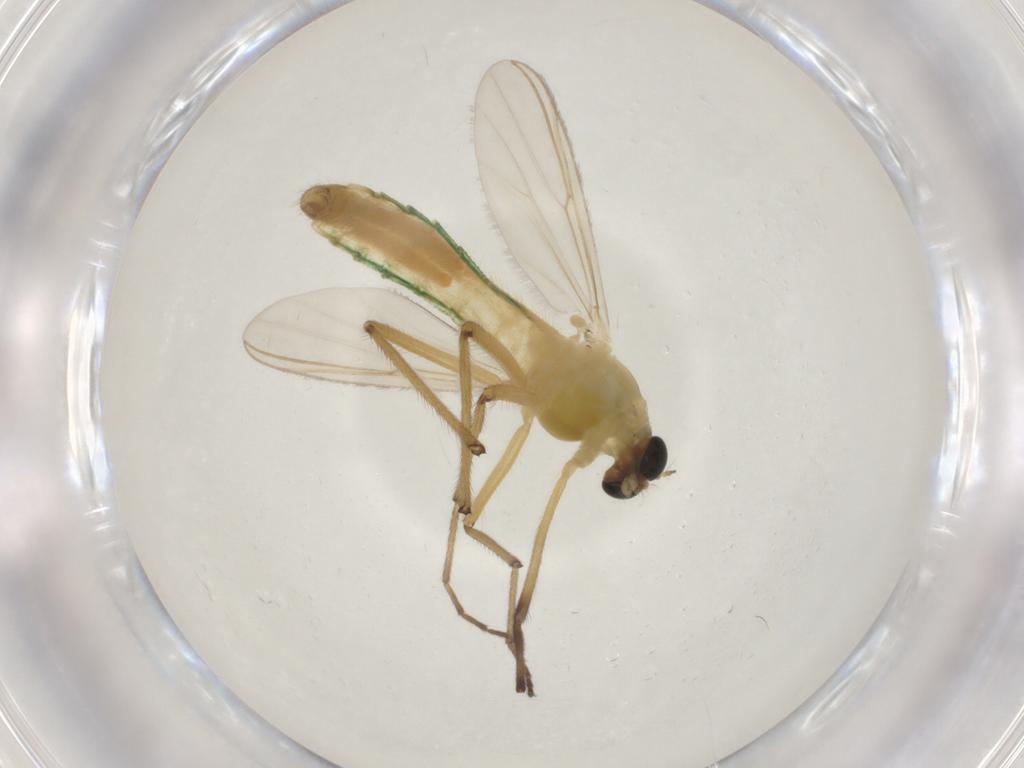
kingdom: Animalia
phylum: Arthropoda
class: Insecta
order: Diptera
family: Chironomidae
